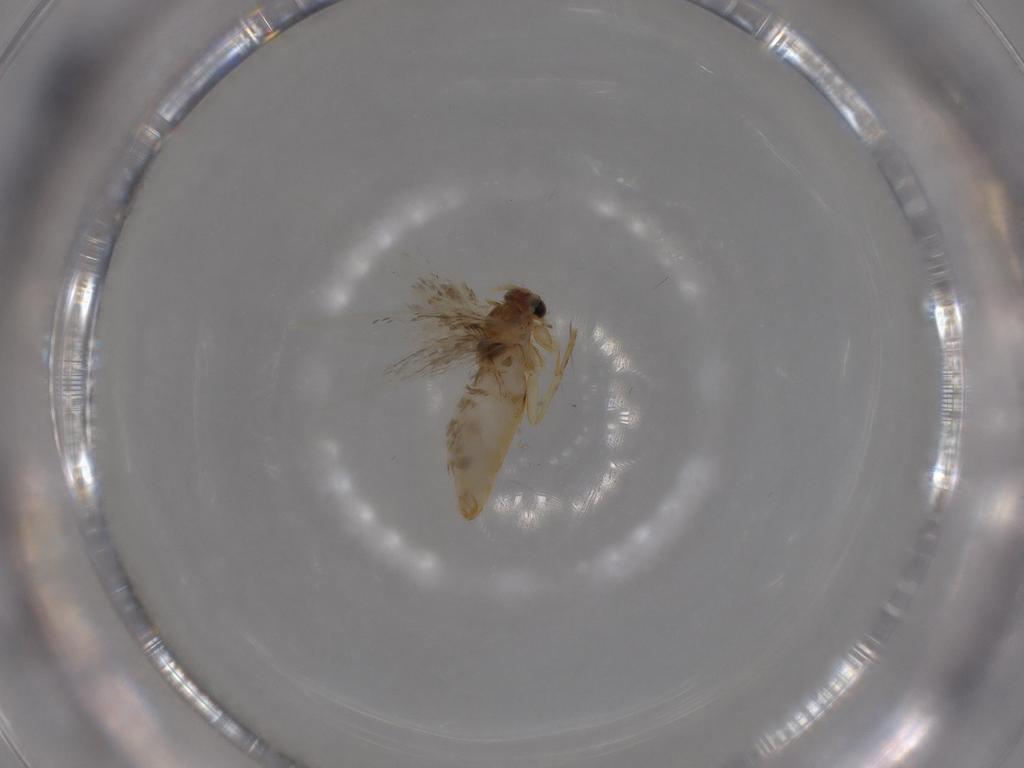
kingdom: Animalia
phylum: Arthropoda
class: Insecta
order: Lepidoptera
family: Nepticulidae
